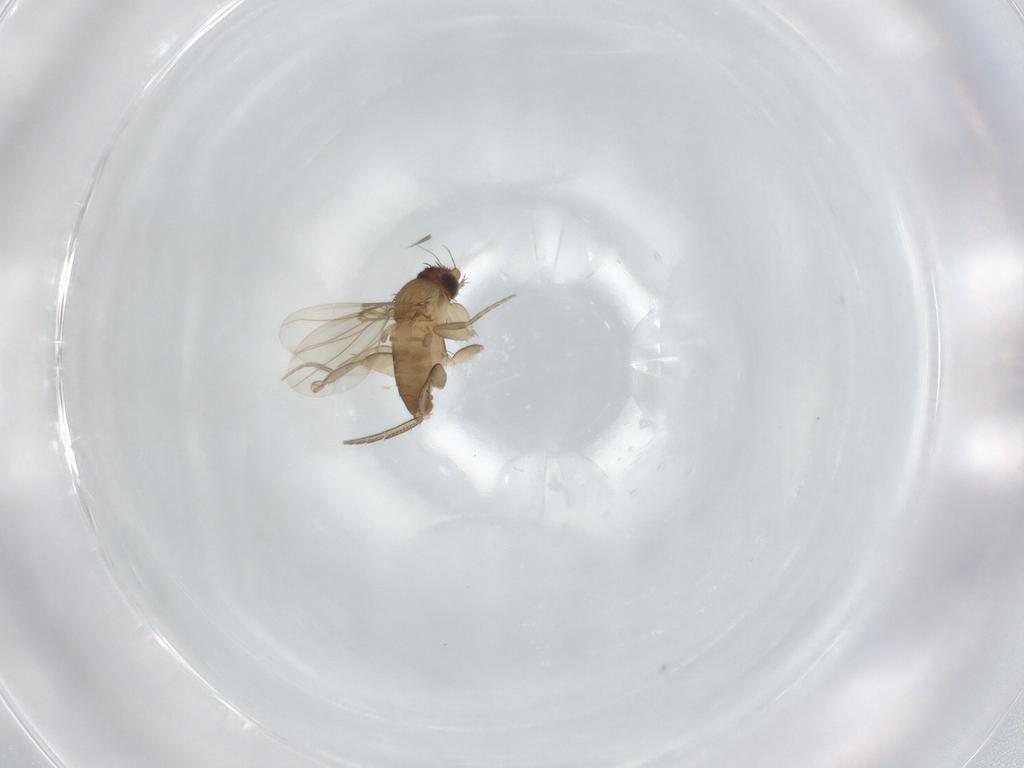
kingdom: Animalia
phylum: Arthropoda
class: Insecta
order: Diptera
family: Phoridae
